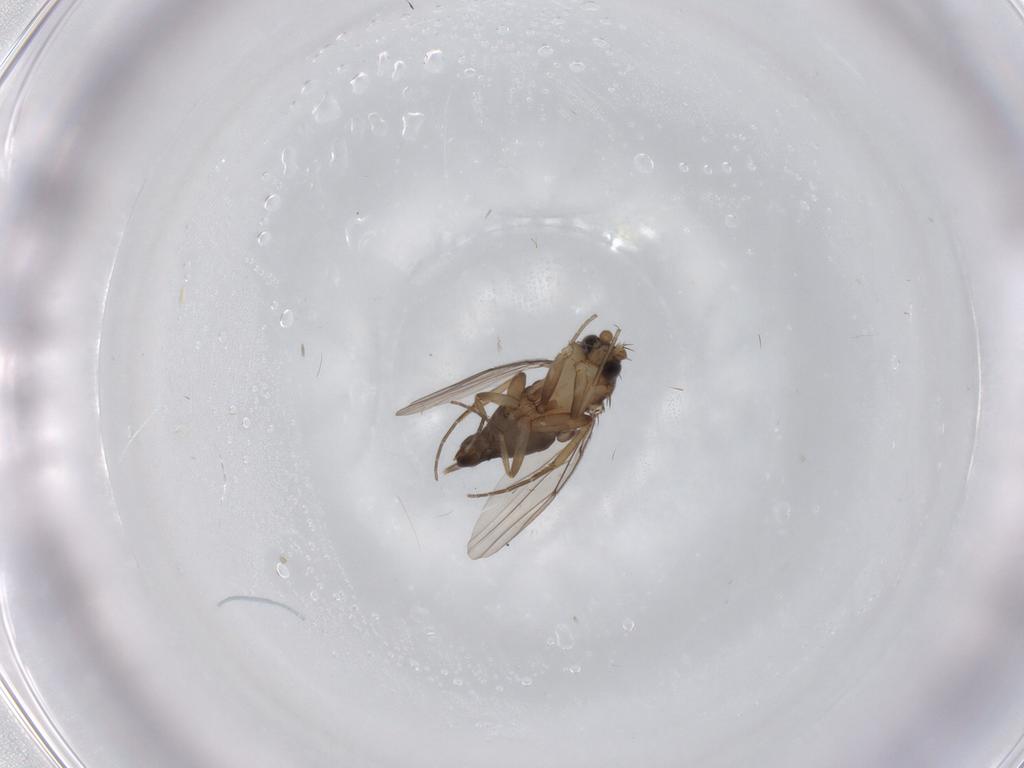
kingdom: Animalia
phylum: Arthropoda
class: Insecta
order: Diptera
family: Phoridae
